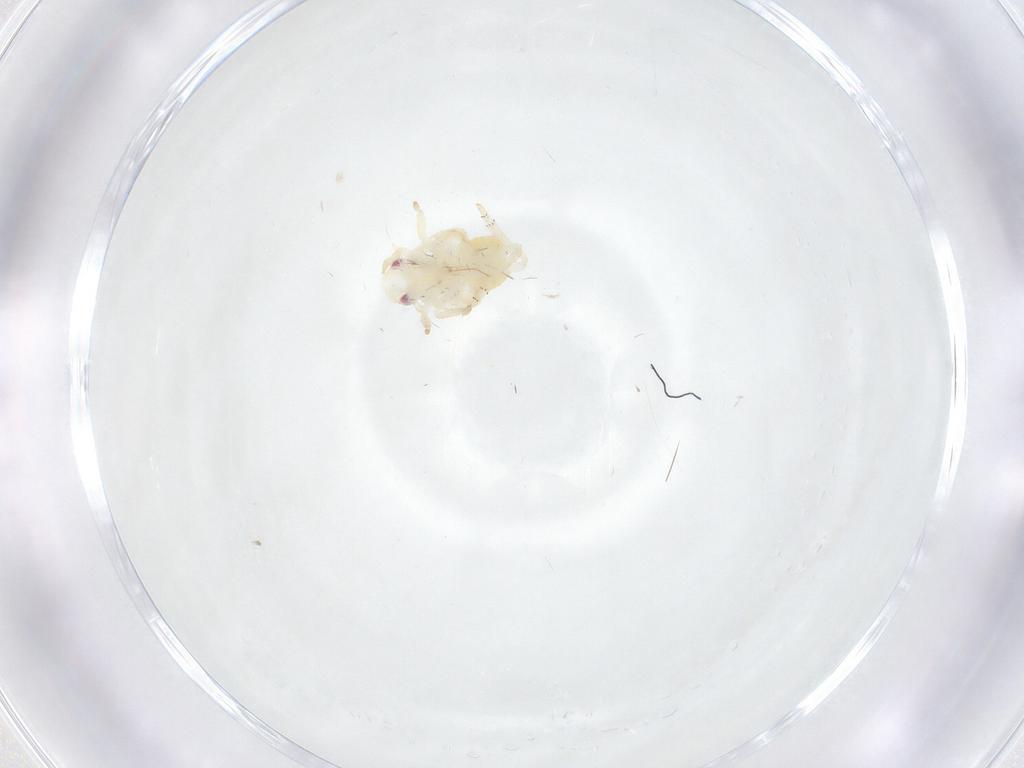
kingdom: Animalia
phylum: Arthropoda
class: Insecta
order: Hemiptera
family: Fulgoroidea_incertae_sedis
